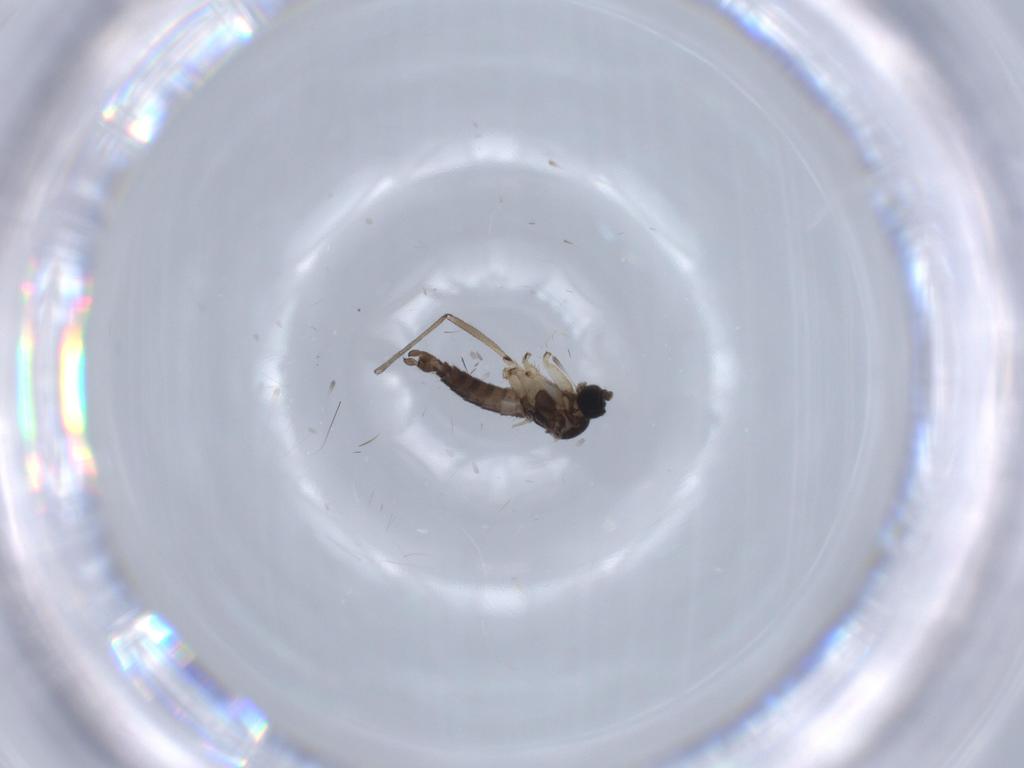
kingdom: Animalia
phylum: Arthropoda
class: Insecta
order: Diptera
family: Sciaridae
